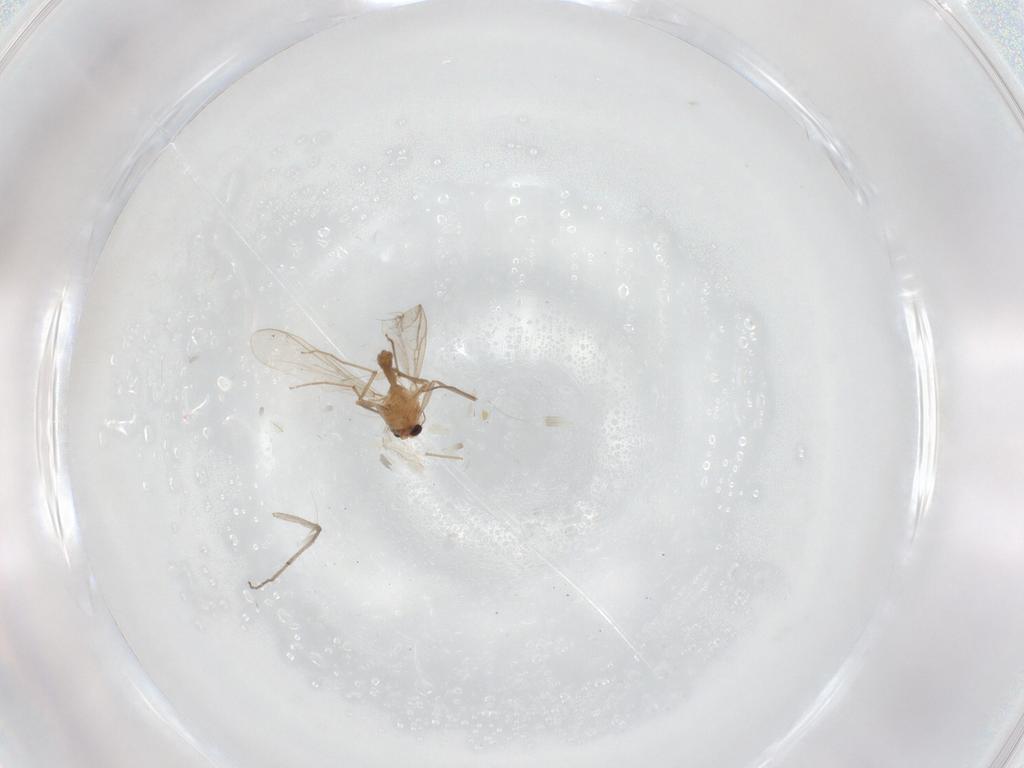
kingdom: Animalia
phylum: Arthropoda
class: Insecta
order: Diptera
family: Chironomidae
